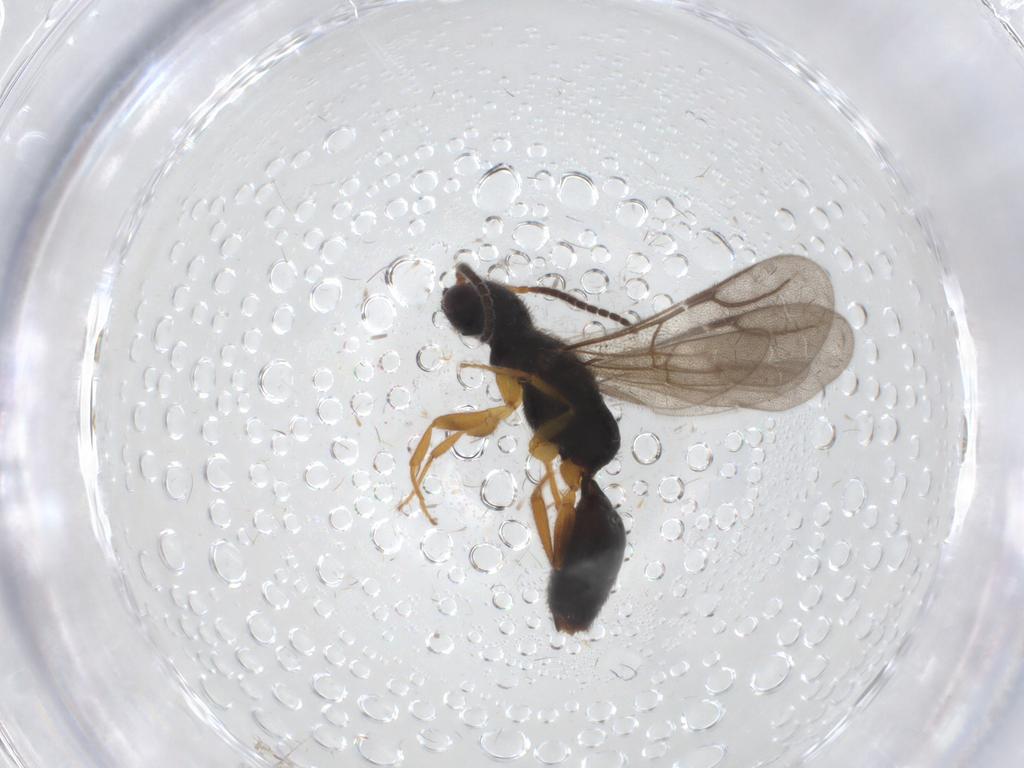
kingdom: Animalia
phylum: Arthropoda
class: Insecta
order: Hymenoptera
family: Bethylidae
